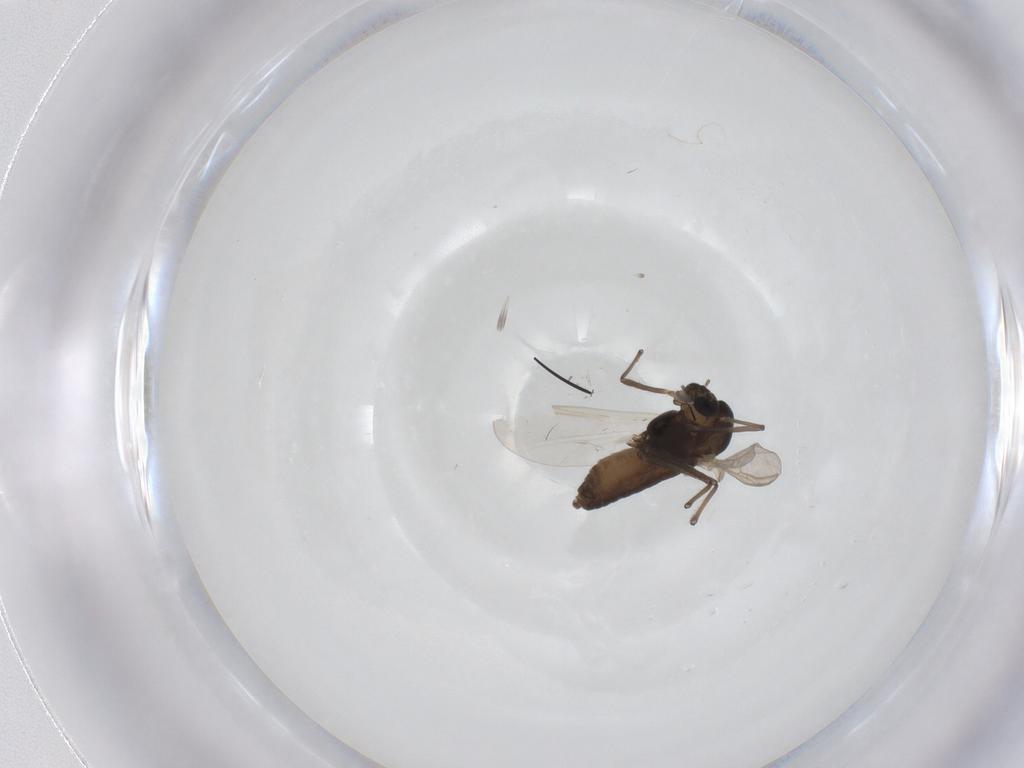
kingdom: Animalia
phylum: Arthropoda
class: Insecta
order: Diptera
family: Chironomidae
